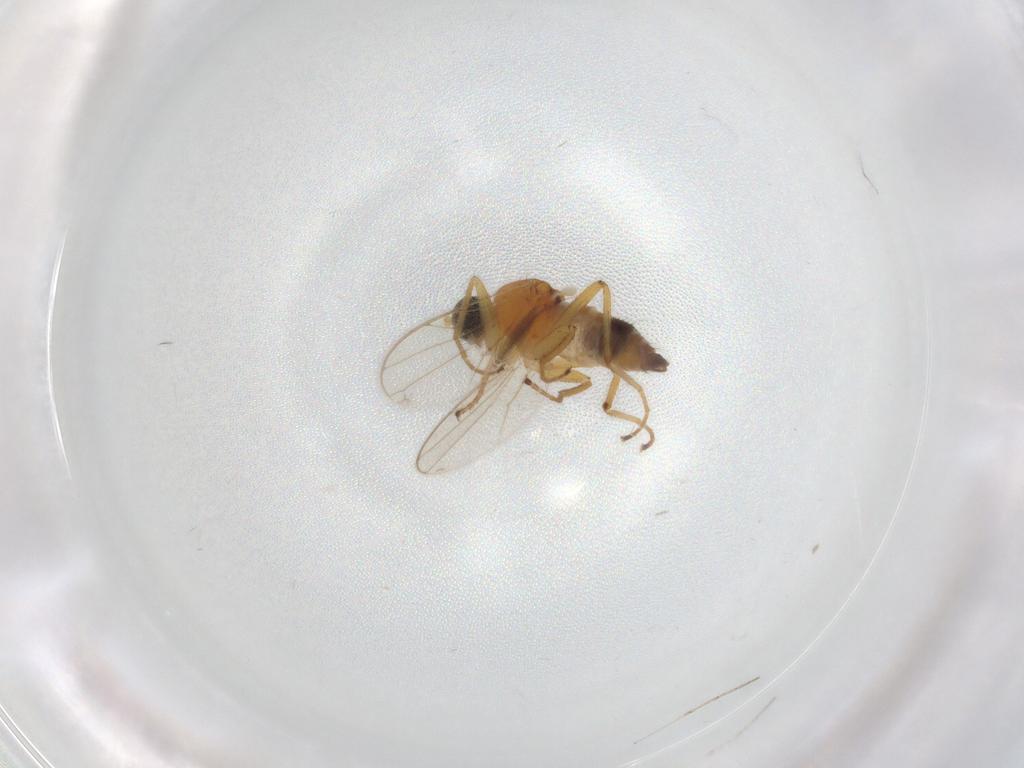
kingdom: Animalia
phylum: Arthropoda
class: Insecta
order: Diptera
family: Hybotidae
